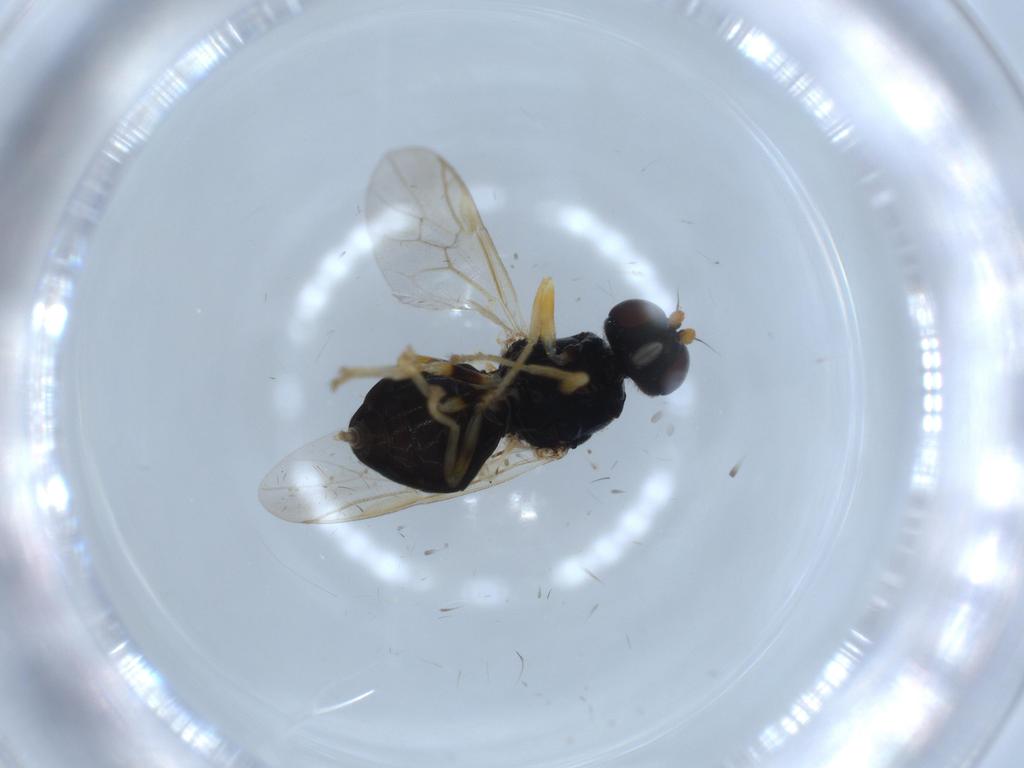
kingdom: Animalia
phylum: Arthropoda
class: Insecta
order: Diptera
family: Stratiomyidae
